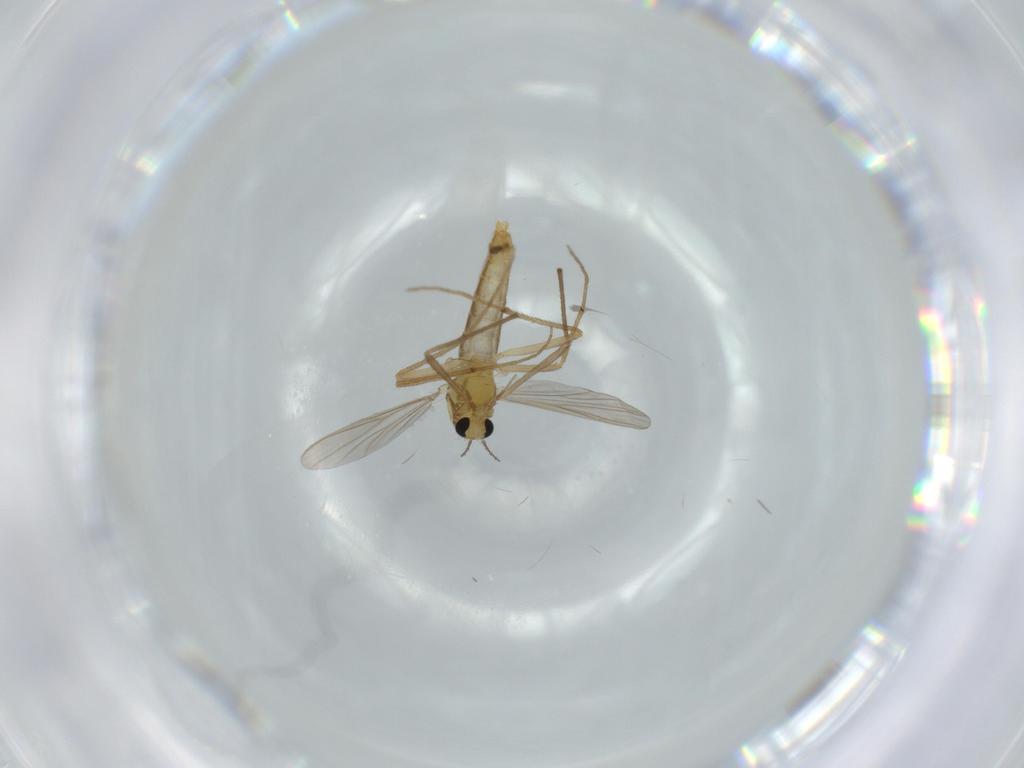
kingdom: Animalia
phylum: Arthropoda
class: Insecta
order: Diptera
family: Chironomidae
